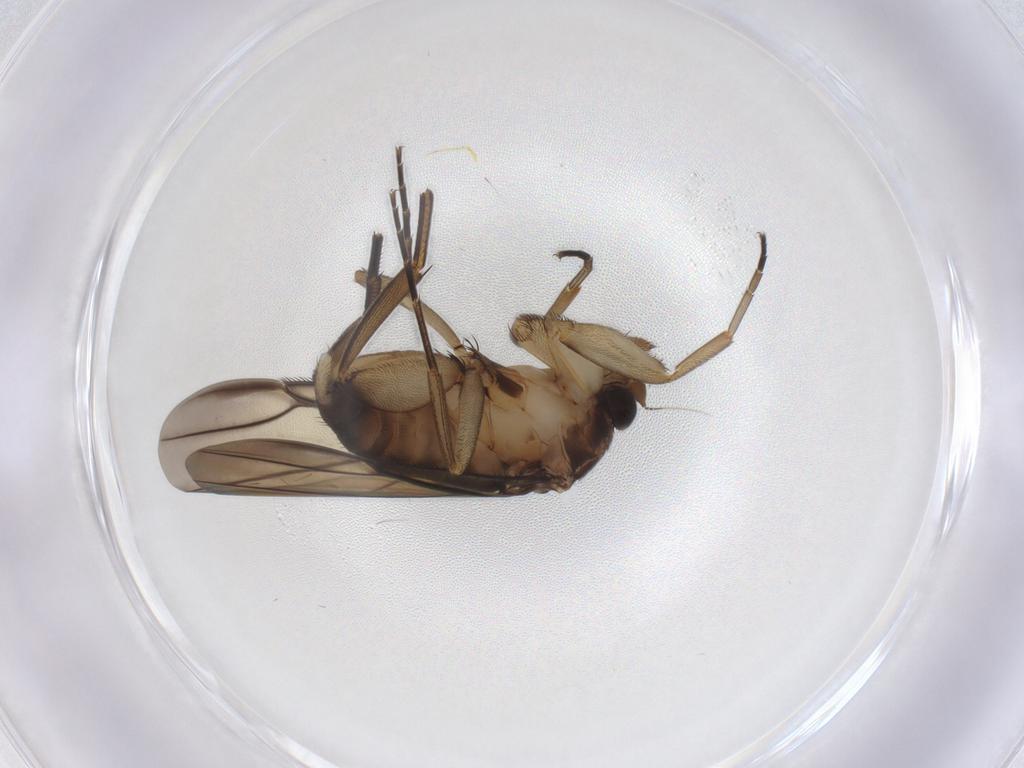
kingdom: Animalia
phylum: Arthropoda
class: Insecta
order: Diptera
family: Phoridae
